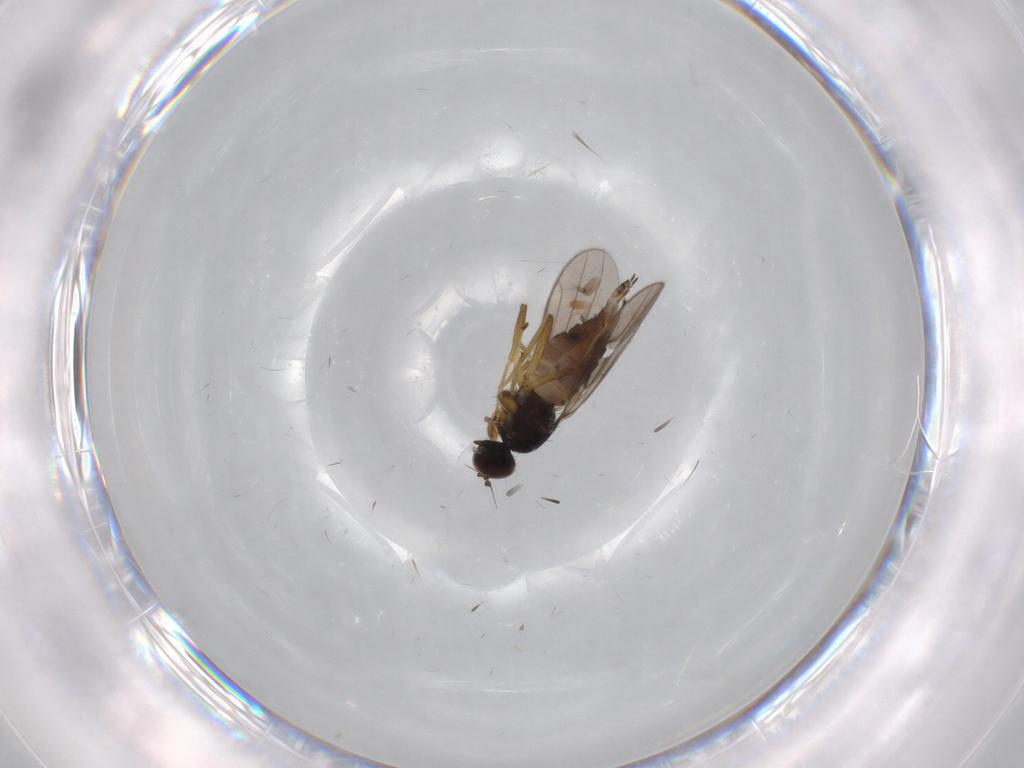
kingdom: Animalia
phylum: Arthropoda
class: Insecta
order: Diptera
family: Hybotidae
